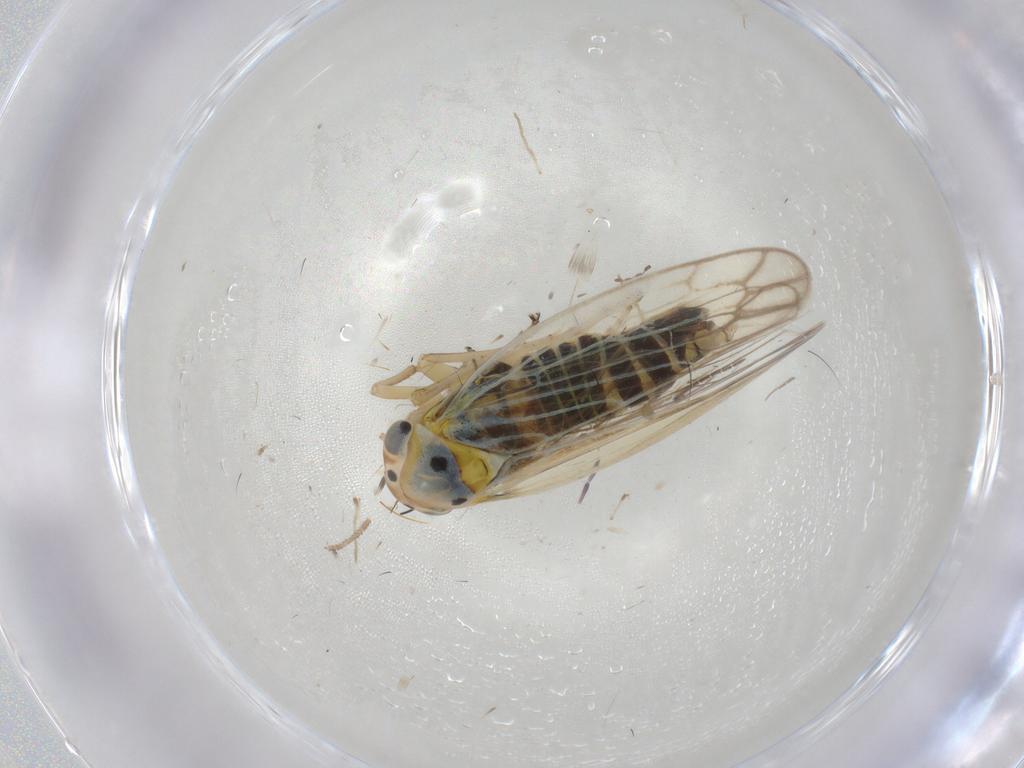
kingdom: Animalia
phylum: Arthropoda
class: Insecta
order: Hemiptera
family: Cicadellidae
